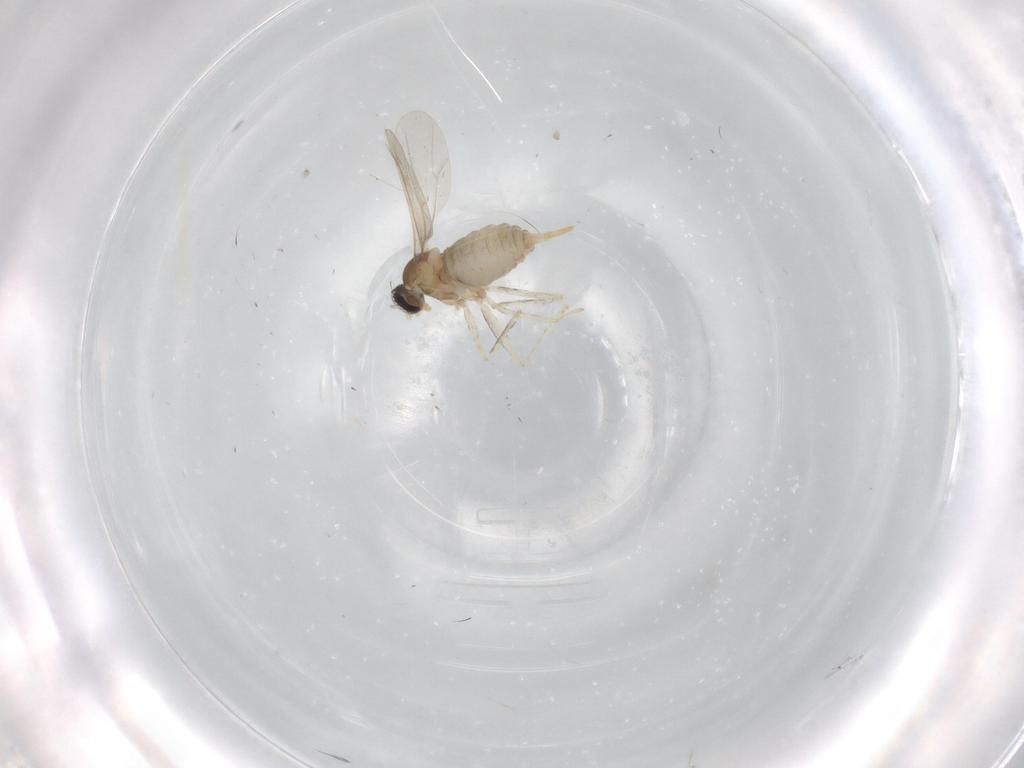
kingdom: Animalia
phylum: Arthropoda
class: Insecta
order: Diptera
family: Cecidomyiidae
